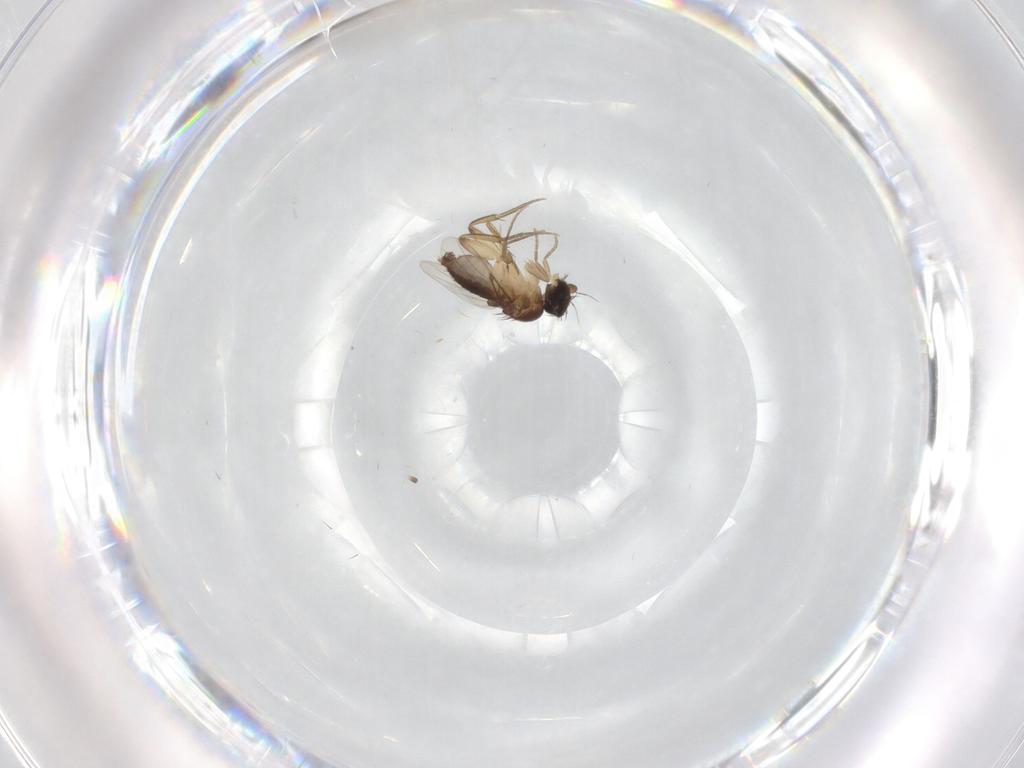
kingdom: Animalia
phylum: Arthropoda
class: Insecta
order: Diptera
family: Phoridae
